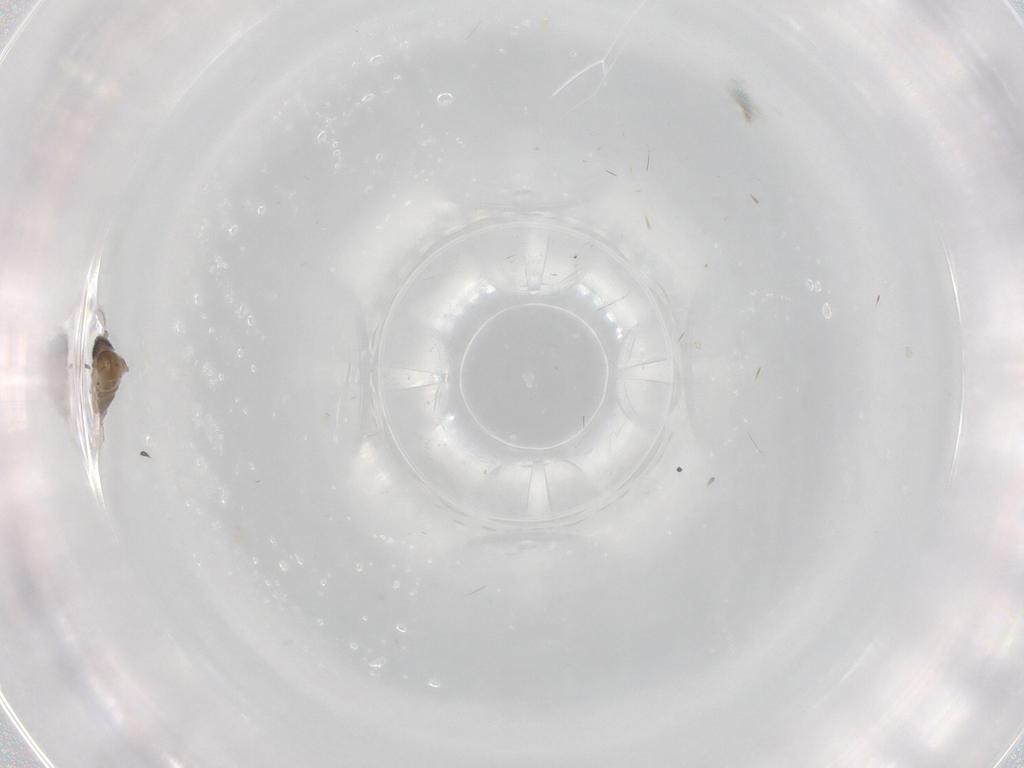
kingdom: Animalia
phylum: Arthropoda
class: Insecta
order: Diptera
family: Psychodidae
